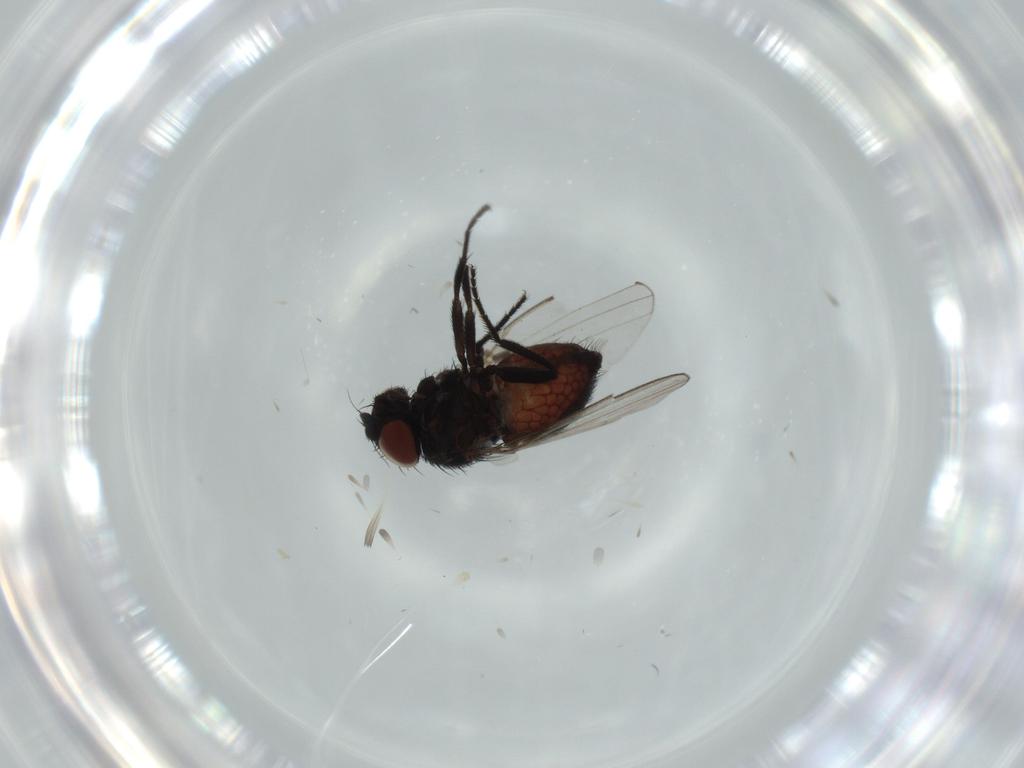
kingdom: Animalia
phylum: Arthropoda
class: Insecta
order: Diptera
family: Milichiidae
